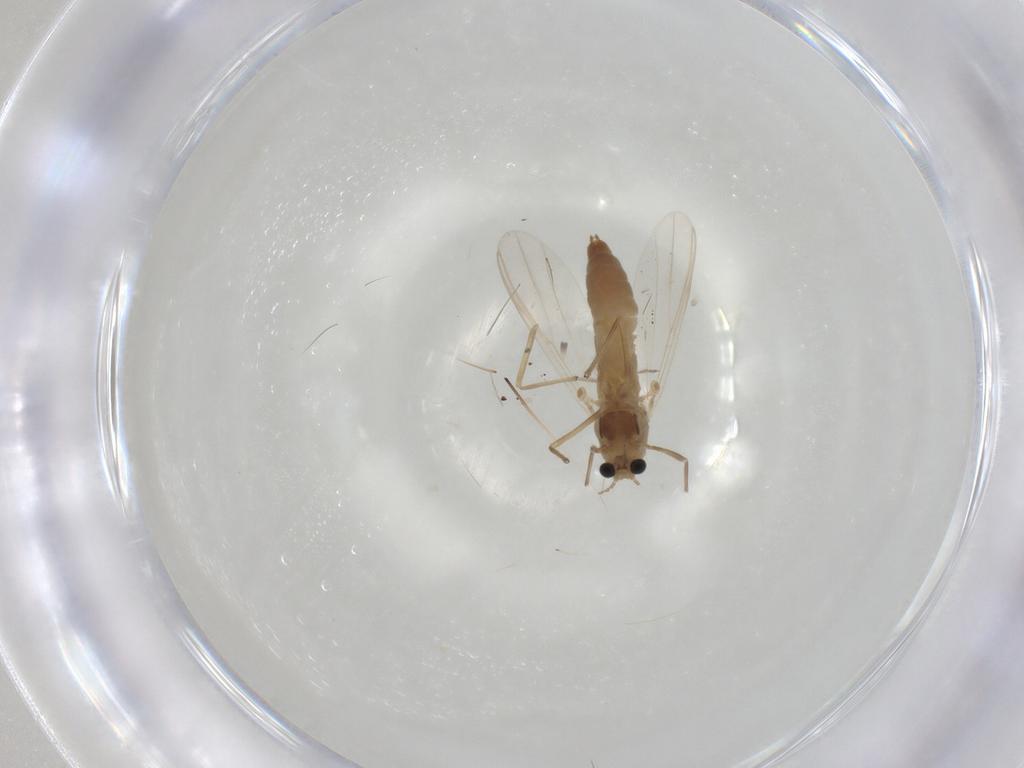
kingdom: Animalia
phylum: Arthropoda
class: Insecta
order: Diptera
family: Chironomidae
